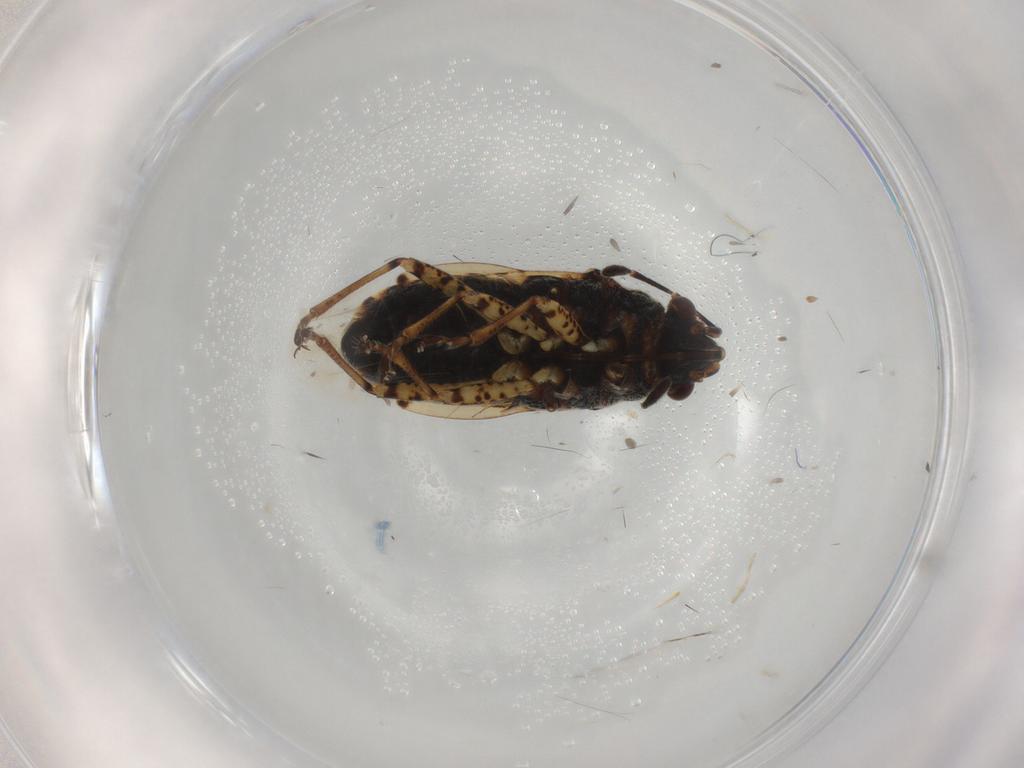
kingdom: Animalia
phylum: Arthropoda
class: Insecta
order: Hemiptera
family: Lygaeidae
